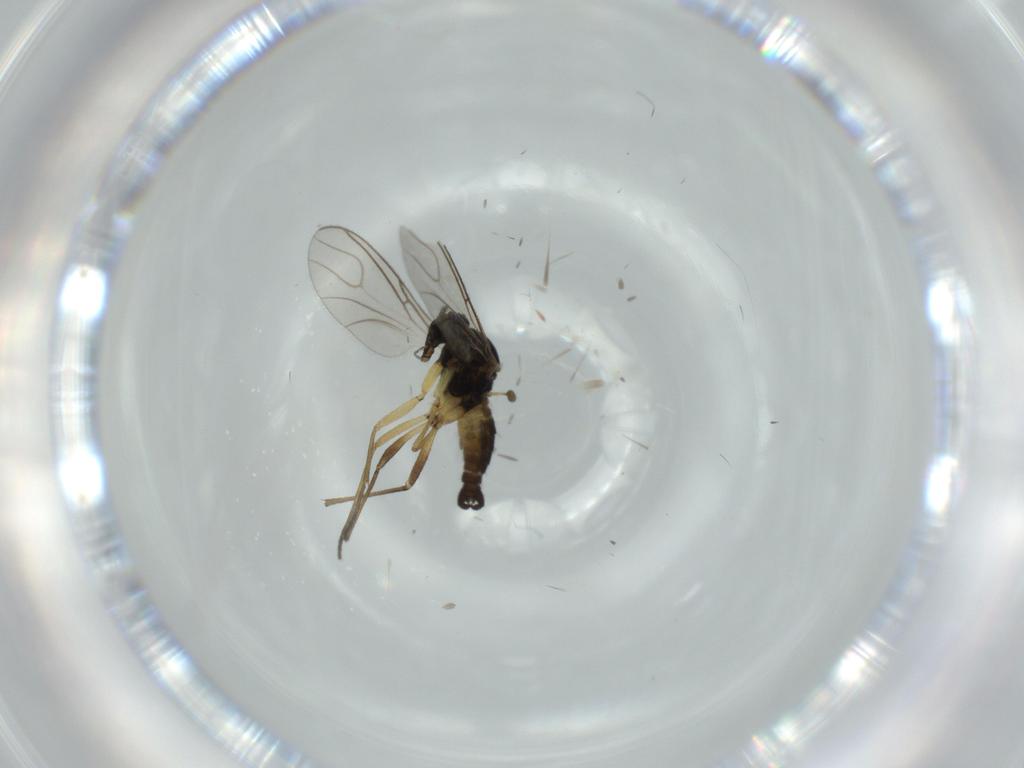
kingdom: Animalia
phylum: Arthropoda
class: Insecta
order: Diptera
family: Sciaridae
